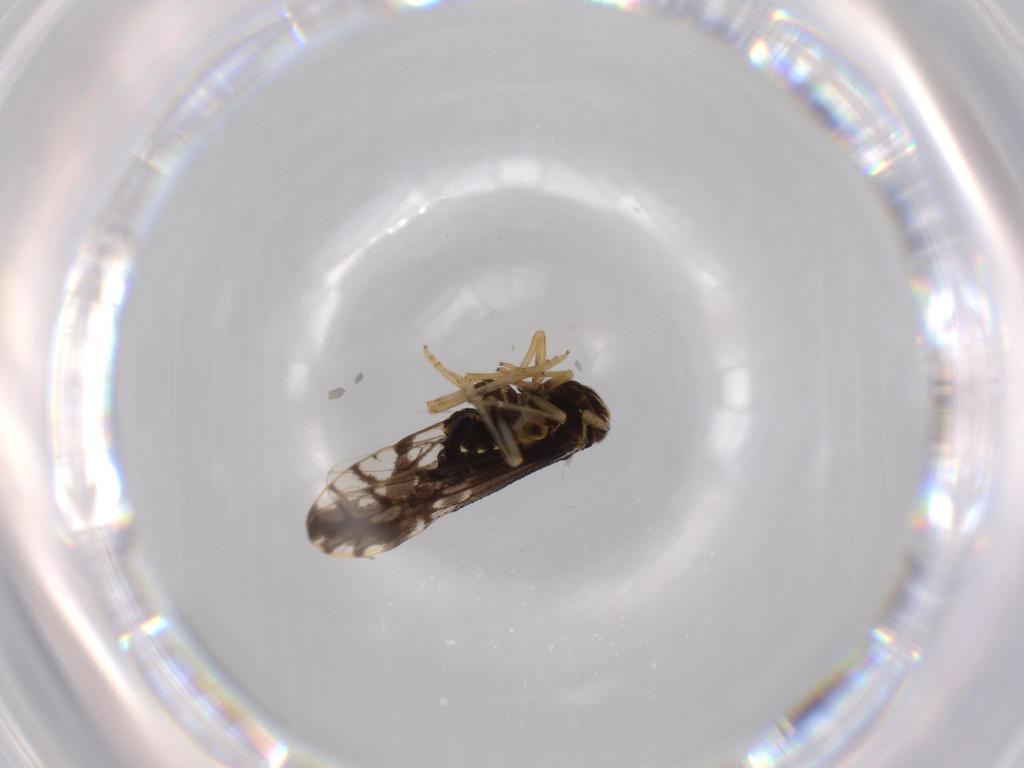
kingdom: Animalia
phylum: Arthropoda
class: Insecta
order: Hemiptera
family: Delphacidae
